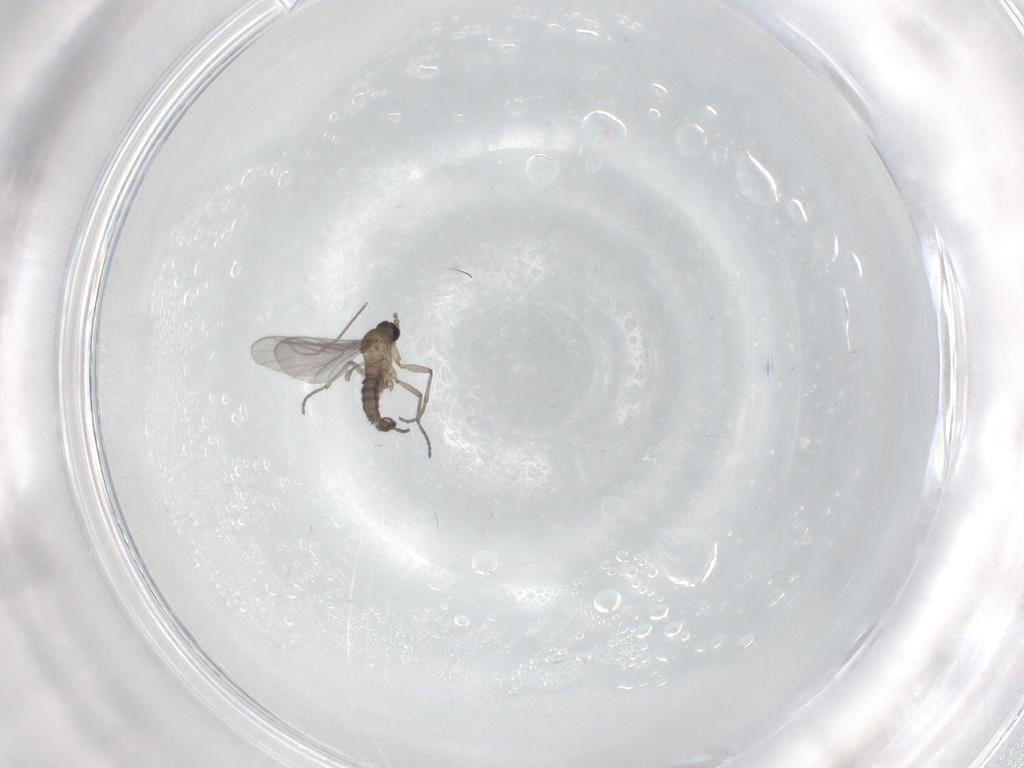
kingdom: Animalia
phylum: Arthropoda
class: Insecta
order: Diptera
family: Sciaridae
